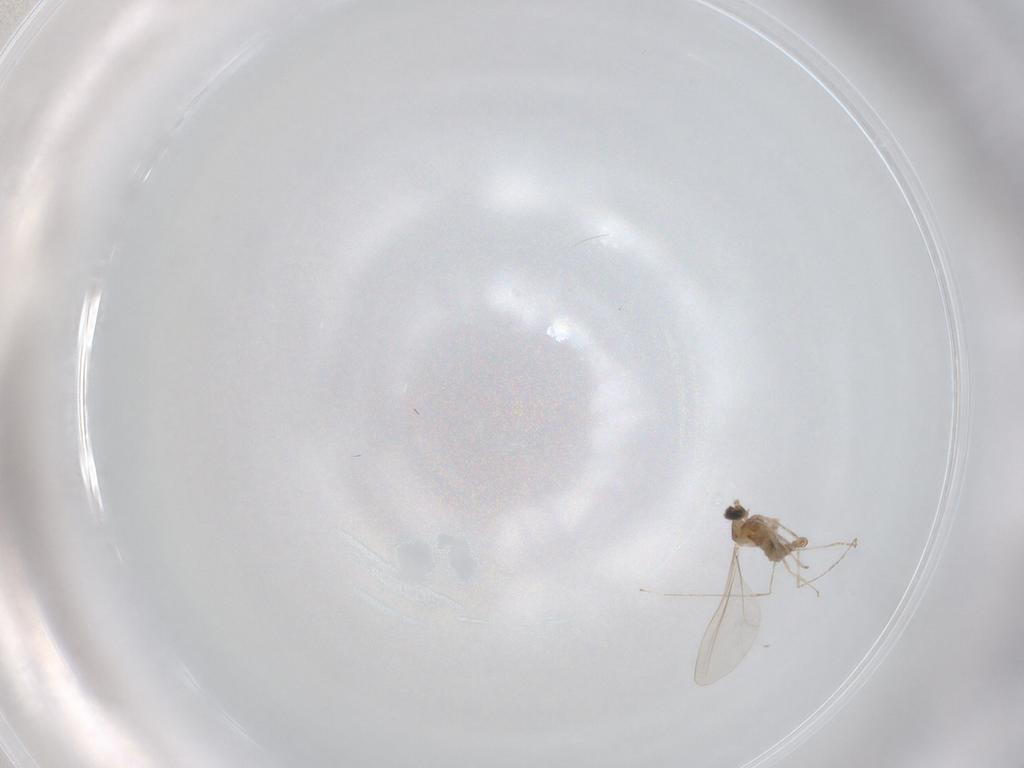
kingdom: Animalia
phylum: Arthropoda
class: Insecta
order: Diptera
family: Cecidomyiidae
